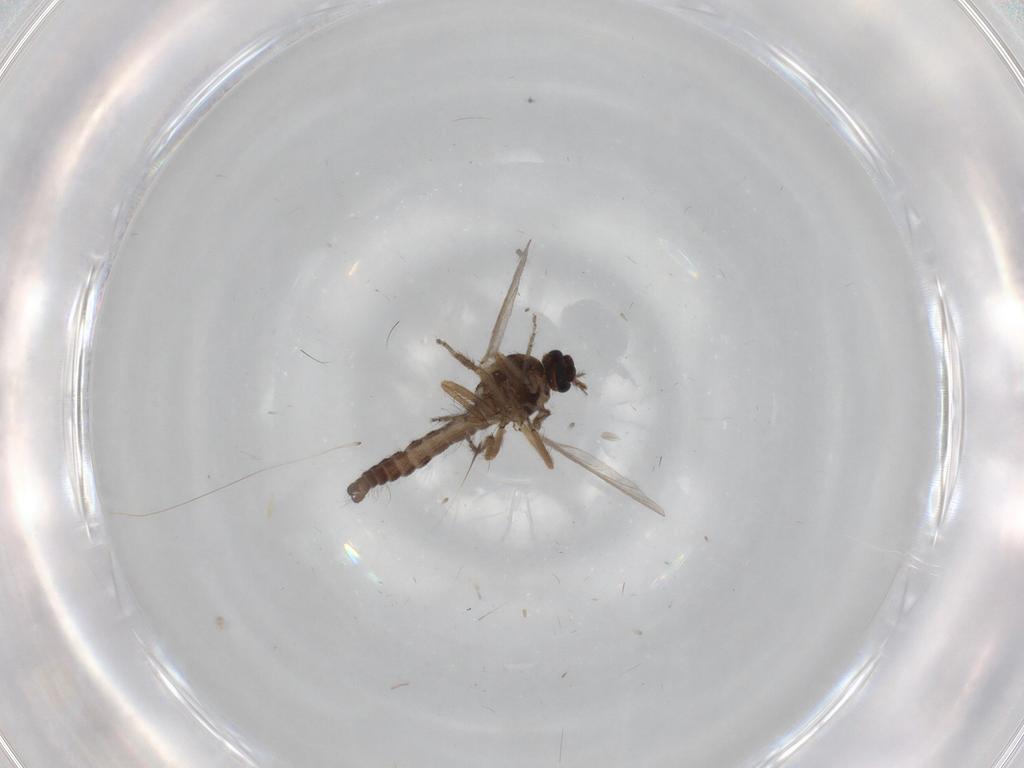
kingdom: Animalia
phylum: Arthropoda
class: Insecta
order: Diptera
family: Ceratopogonidae
